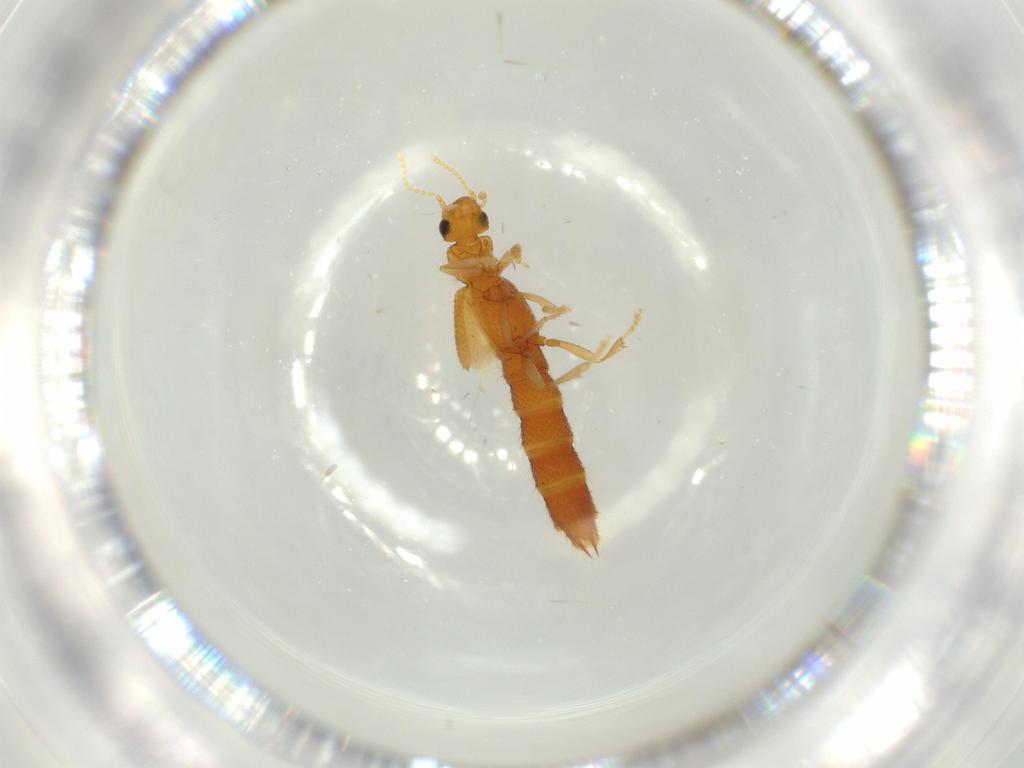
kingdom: Animalia
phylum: Arthropoda
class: Insecta
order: Coleoptera
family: Staphylinidae
